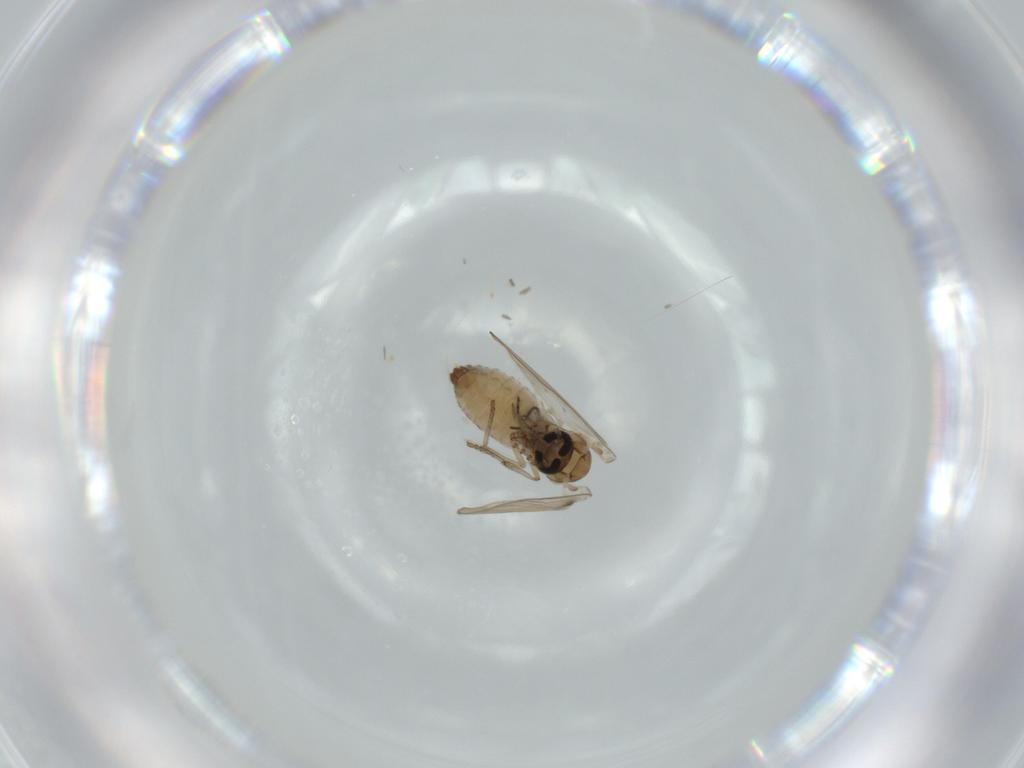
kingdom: Animalia
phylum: Arthropoda
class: Insecta
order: Diptera
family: Psychodidae
